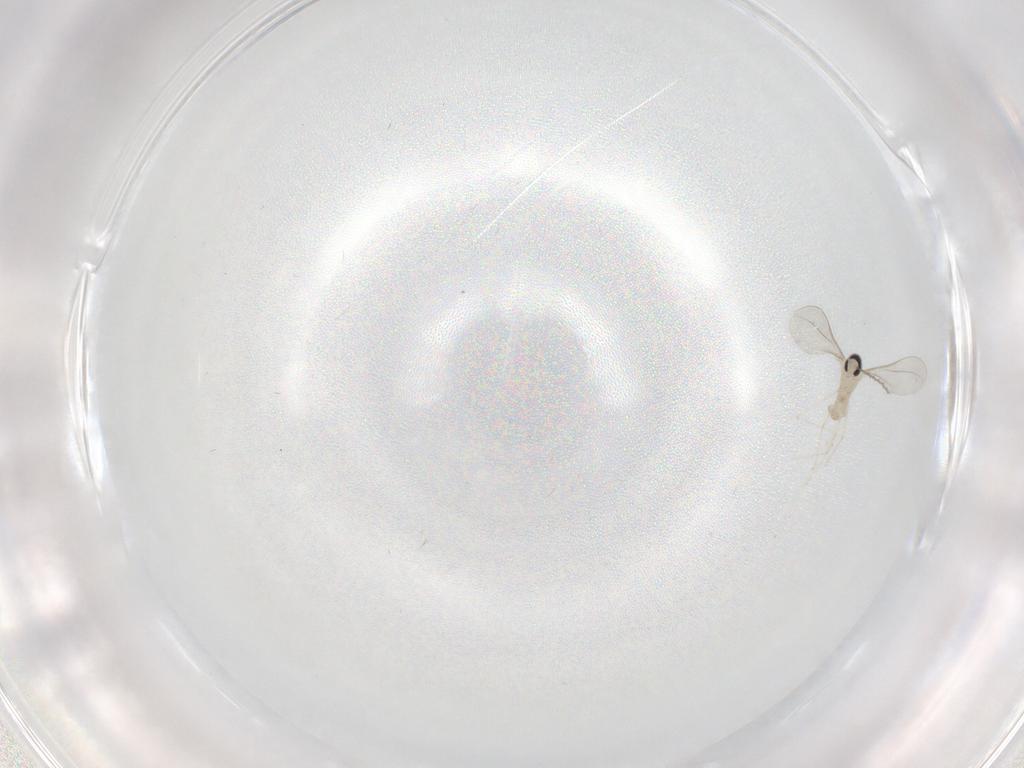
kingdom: Animalia
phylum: Arthropoda
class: Insecta
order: Diptera
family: Cecidomyiidae
